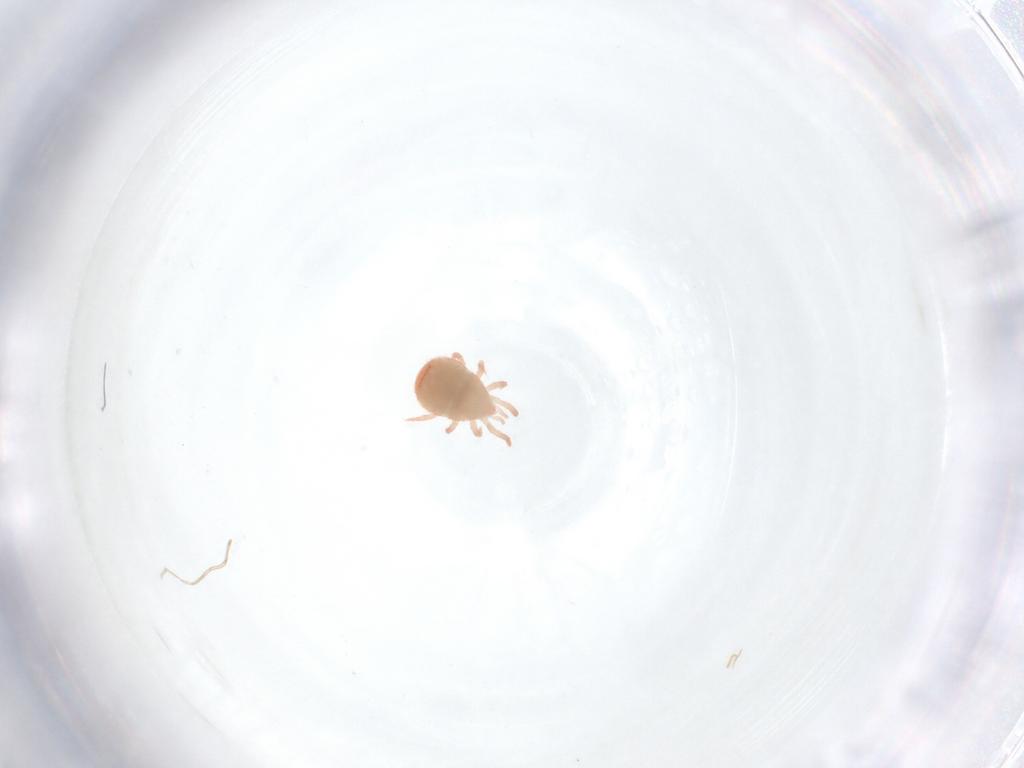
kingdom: Animalia
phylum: Arthropoda
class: Arachnida
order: Mesostigmata
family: Zerconidae
